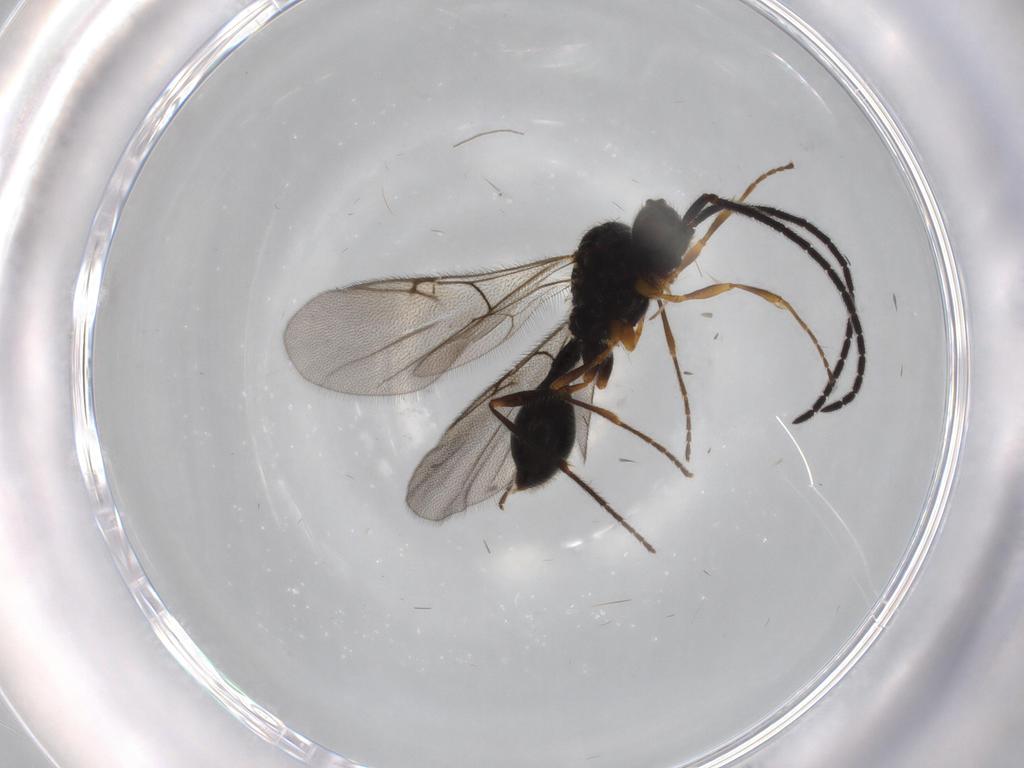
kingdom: Animalia
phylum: Arthropoda
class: Insecta
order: Hymenoptera
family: Diapriidae
